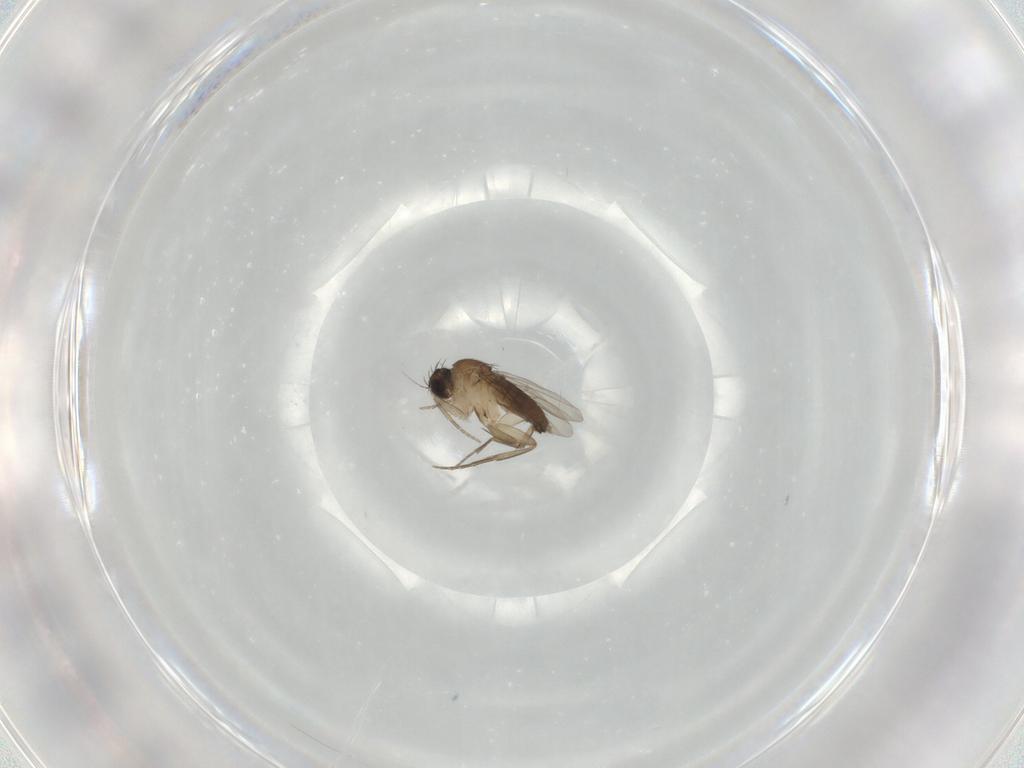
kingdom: Animalia
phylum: Arthropoda
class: Insecta
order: Diptera
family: Phoridae
